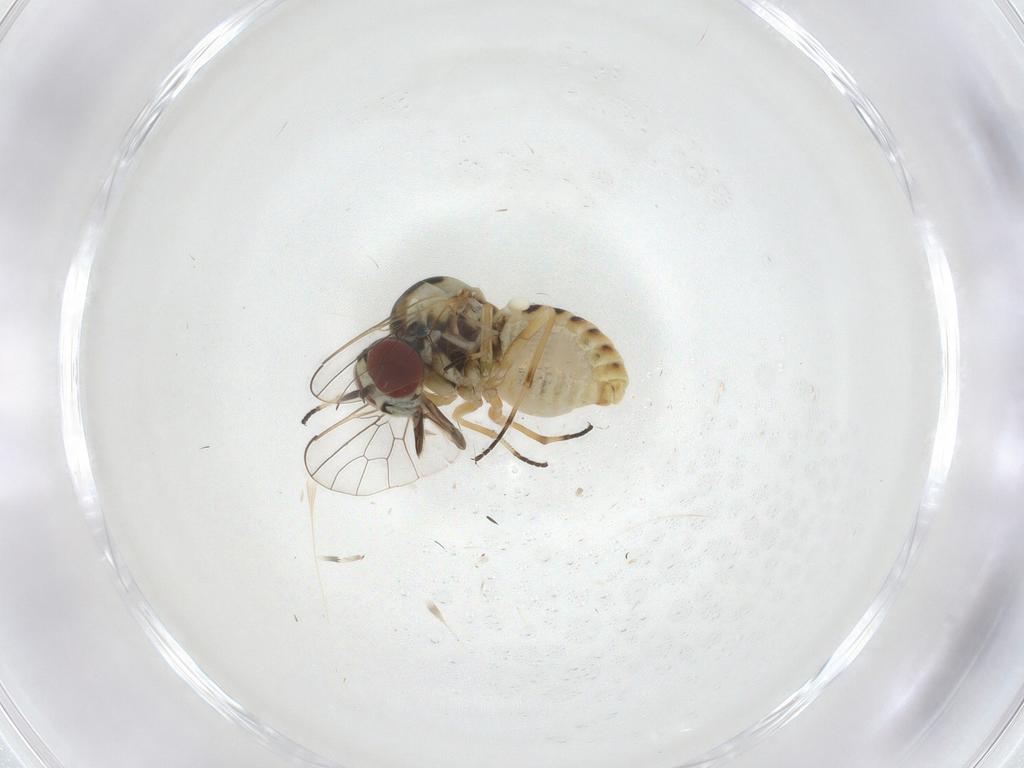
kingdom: Animalia
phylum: Arthropoda
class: Insecta
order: Diptera
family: Bombyliidae
